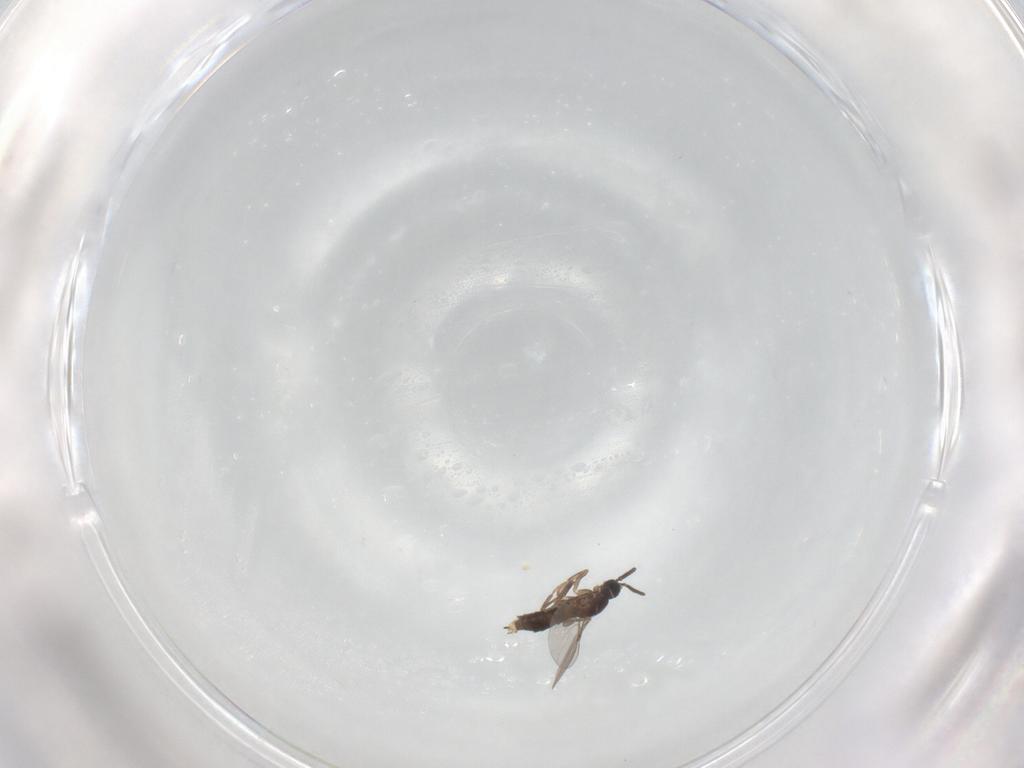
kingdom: Animalia
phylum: Arthropoda
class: Insecta
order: Diptera
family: Scatopsidae
